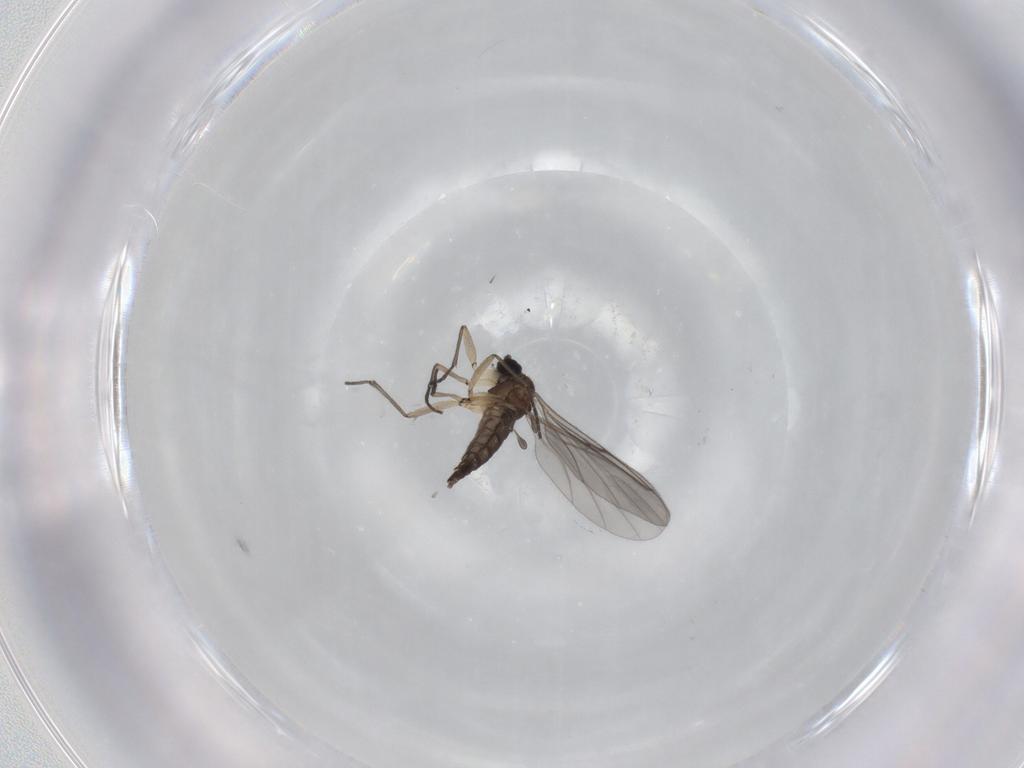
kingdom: Animalia
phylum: Arthropoda
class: Insecta
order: Diptera
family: Sciaridae
